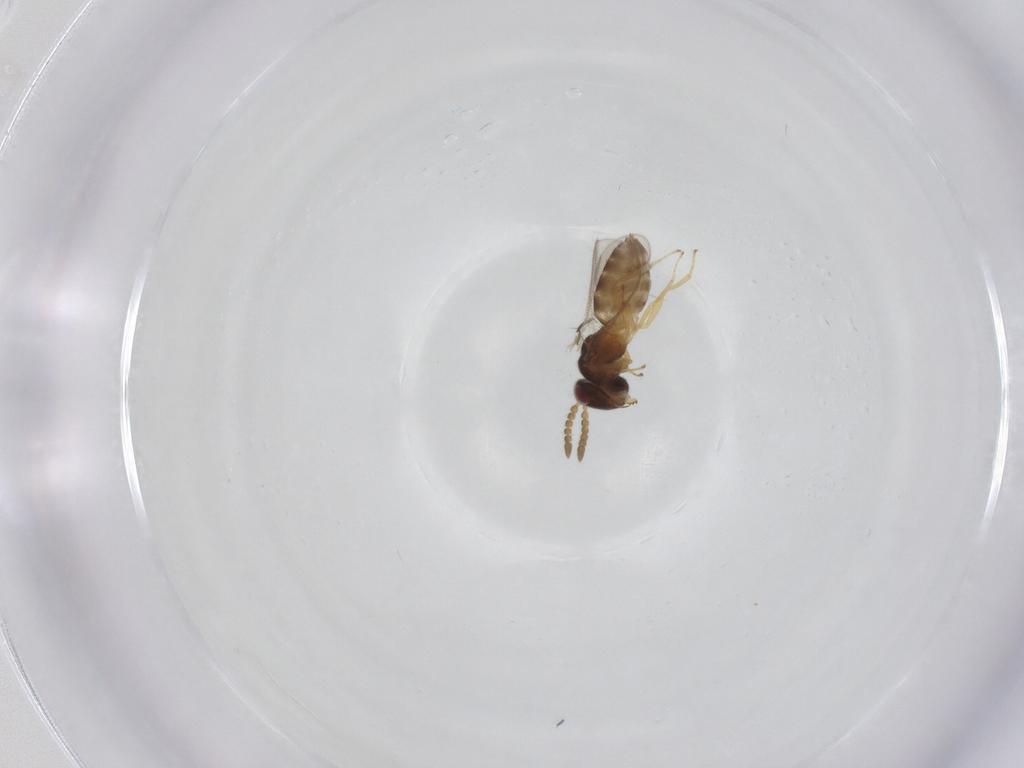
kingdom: Animalia
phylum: Arthropoda
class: Insecta
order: Hymenoptera
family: Pteromalidae
